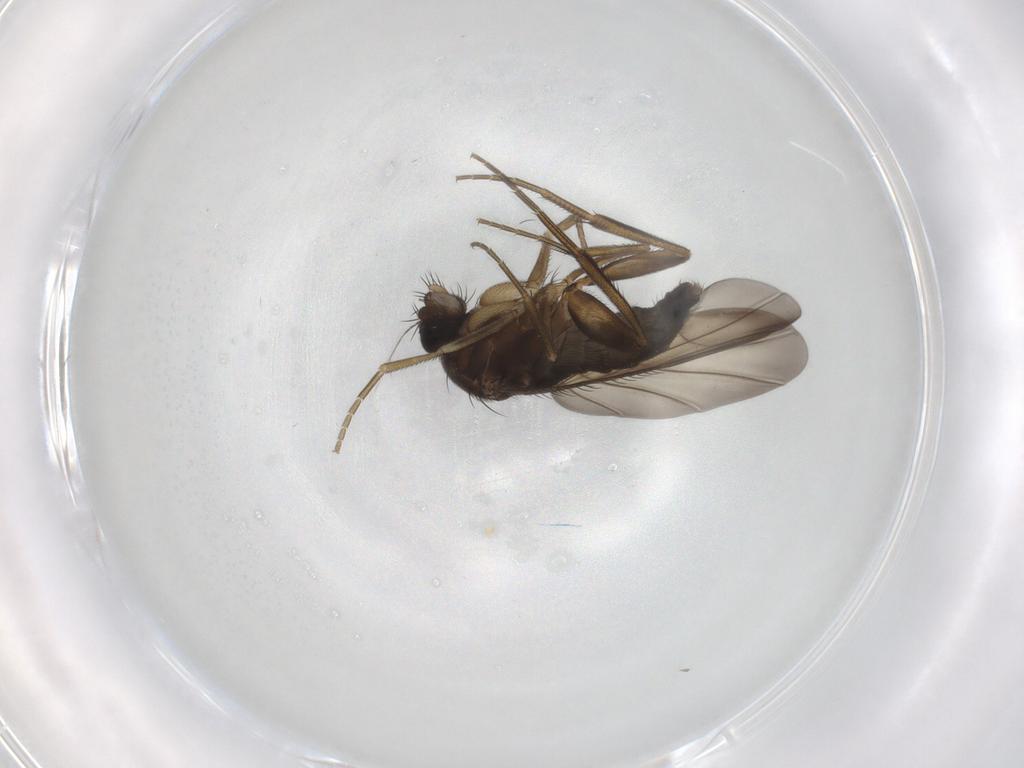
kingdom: Animalia
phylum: Arthropoda
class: Insecta
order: Diptera
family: Phoridae
